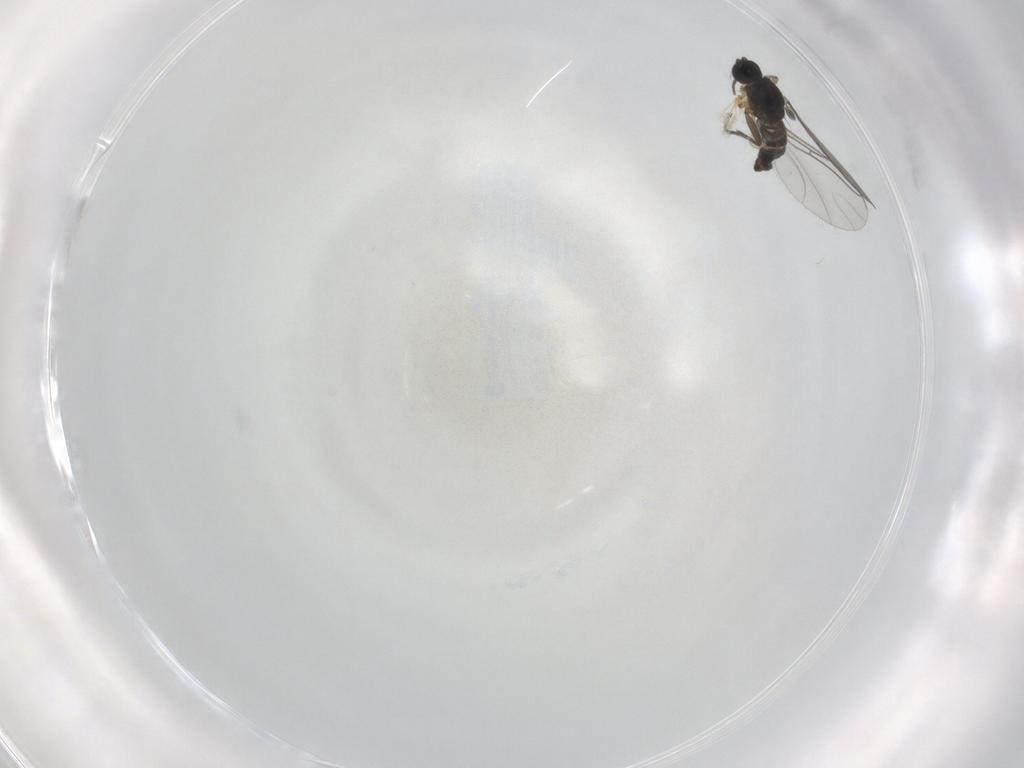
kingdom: Animalia
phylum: Arthropoda
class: Insecta
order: Diptera
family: Sciaridae
